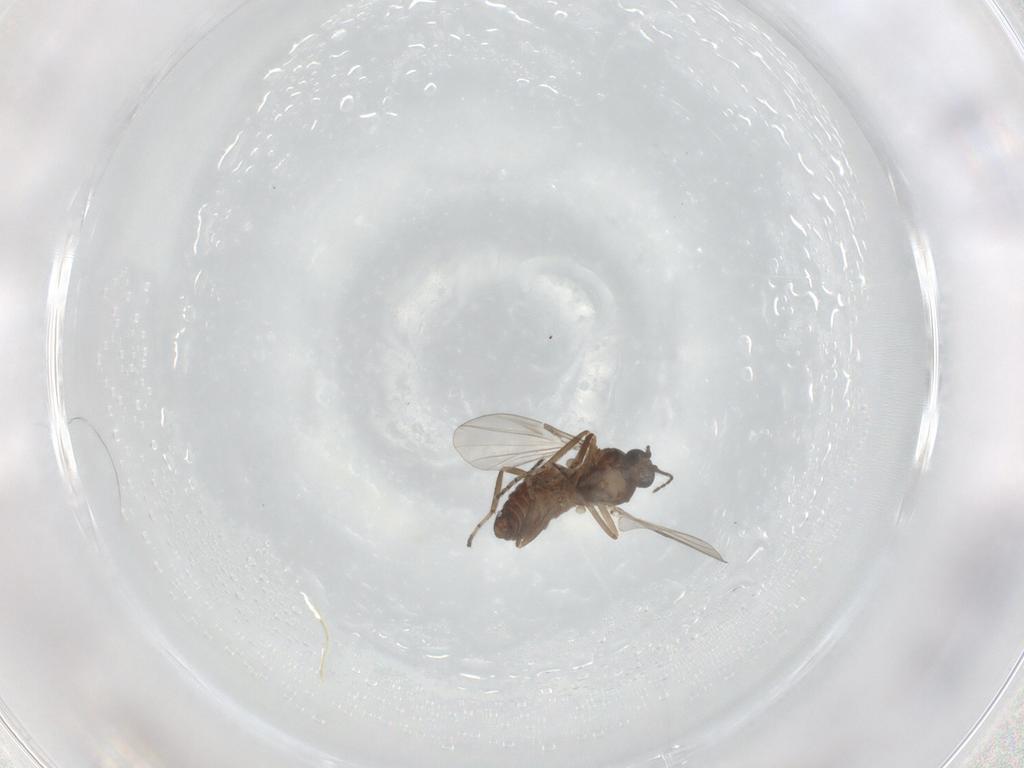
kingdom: Animalia
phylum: Arthropoda
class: Insecta
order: Diptera
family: Ceratopogonidae
